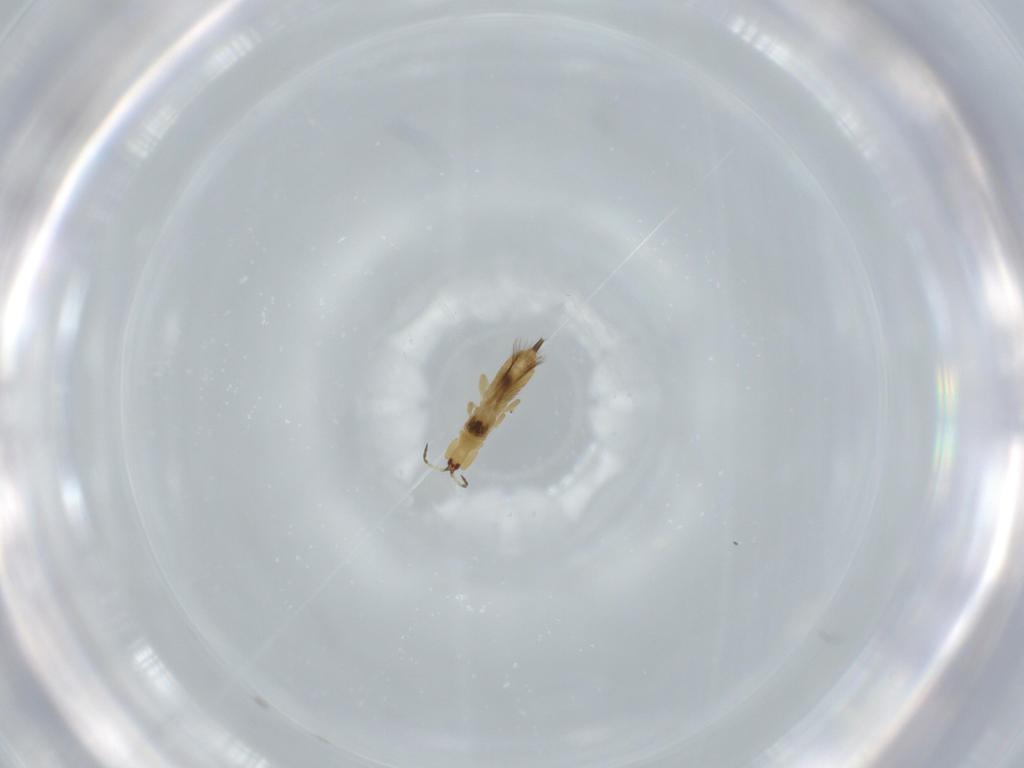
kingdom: Animalia
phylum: Arthropoda
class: Insecta
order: Thysanoptera
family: Phlaeothripidae
